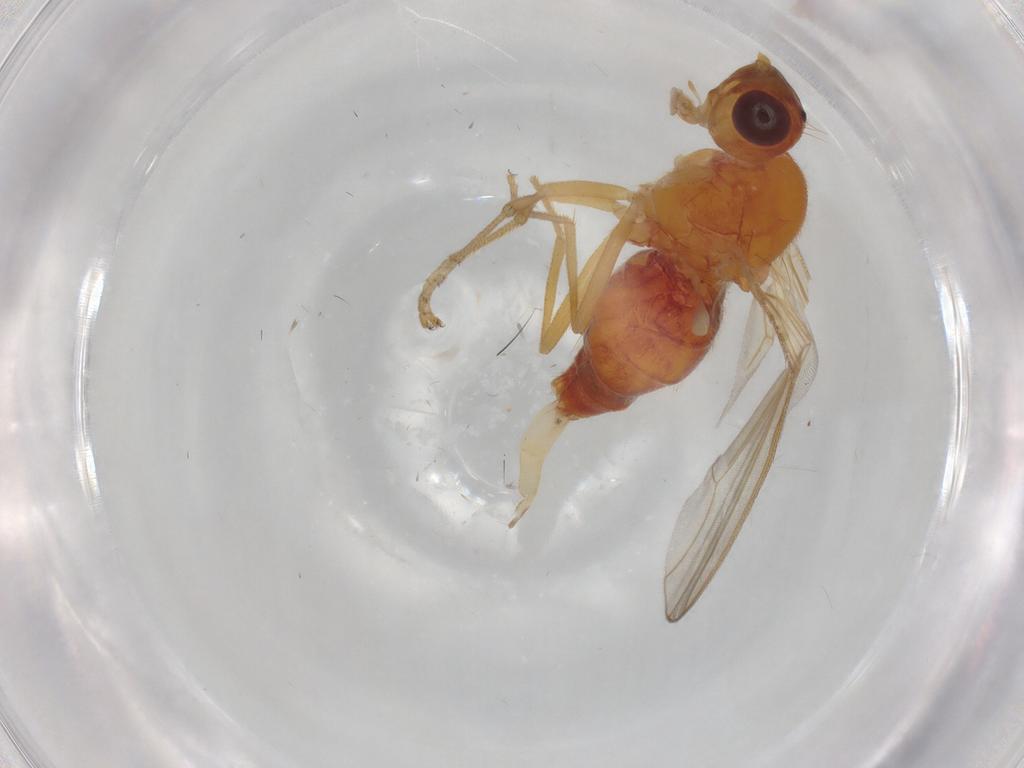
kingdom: Animalia
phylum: Arthropoda
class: Insecta
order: Diptera
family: Psilidae
